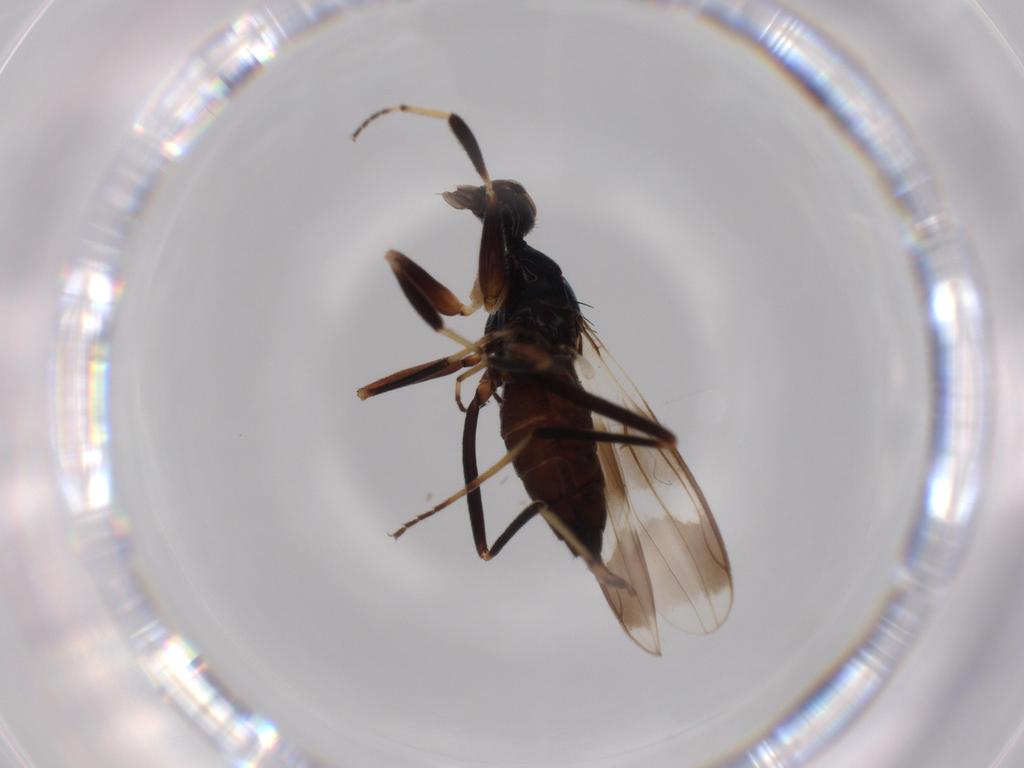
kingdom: Animalia
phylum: Arthropoda
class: Insecta
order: Diptera
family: Hybotidae
